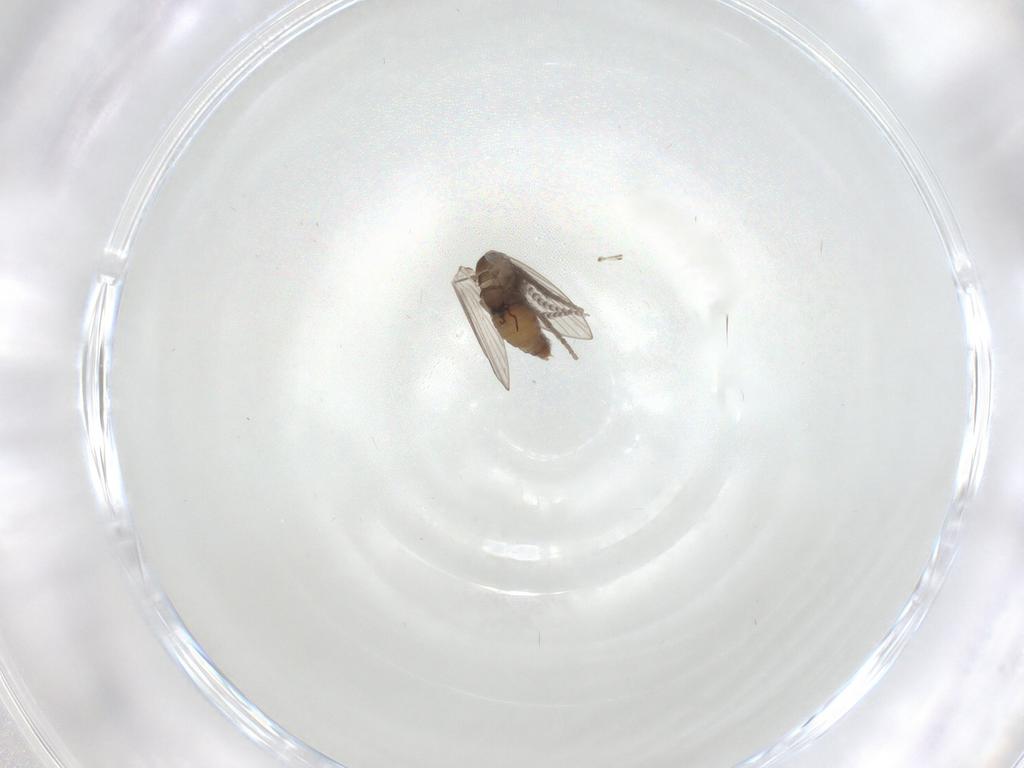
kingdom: Animalia
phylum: Arthropoda
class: Insecta
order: Diptera
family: Psychodidae
